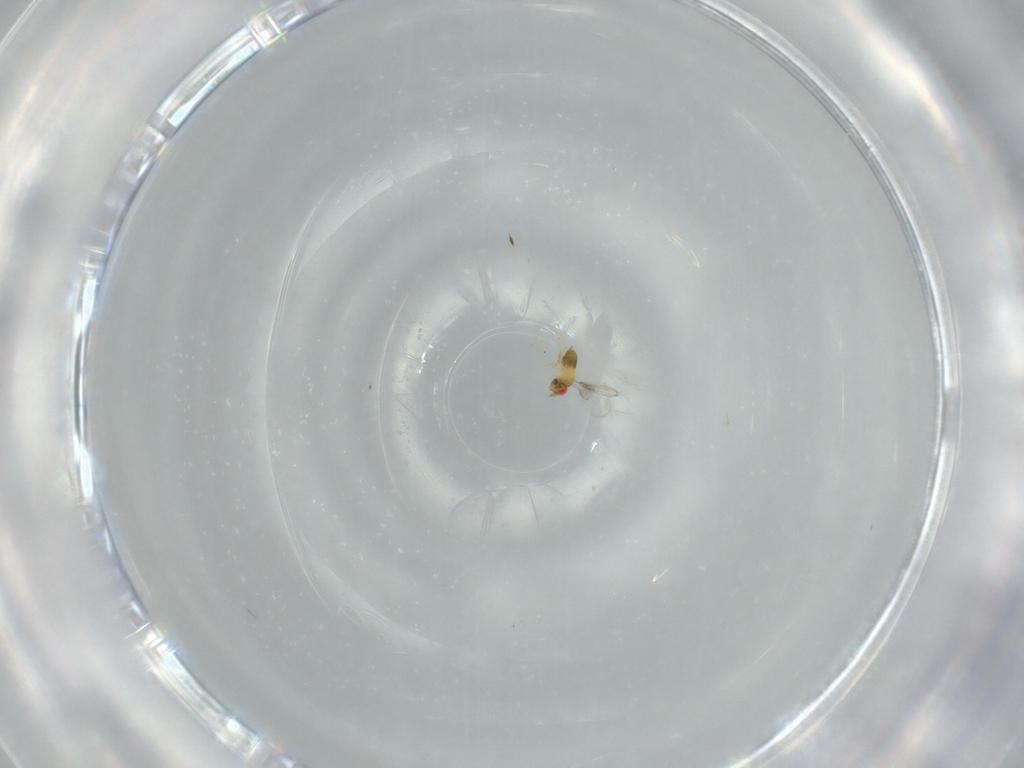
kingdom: Animalia
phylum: Arthropoda
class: Insecta
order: Hymenoptera
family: Trichogrammatidae
